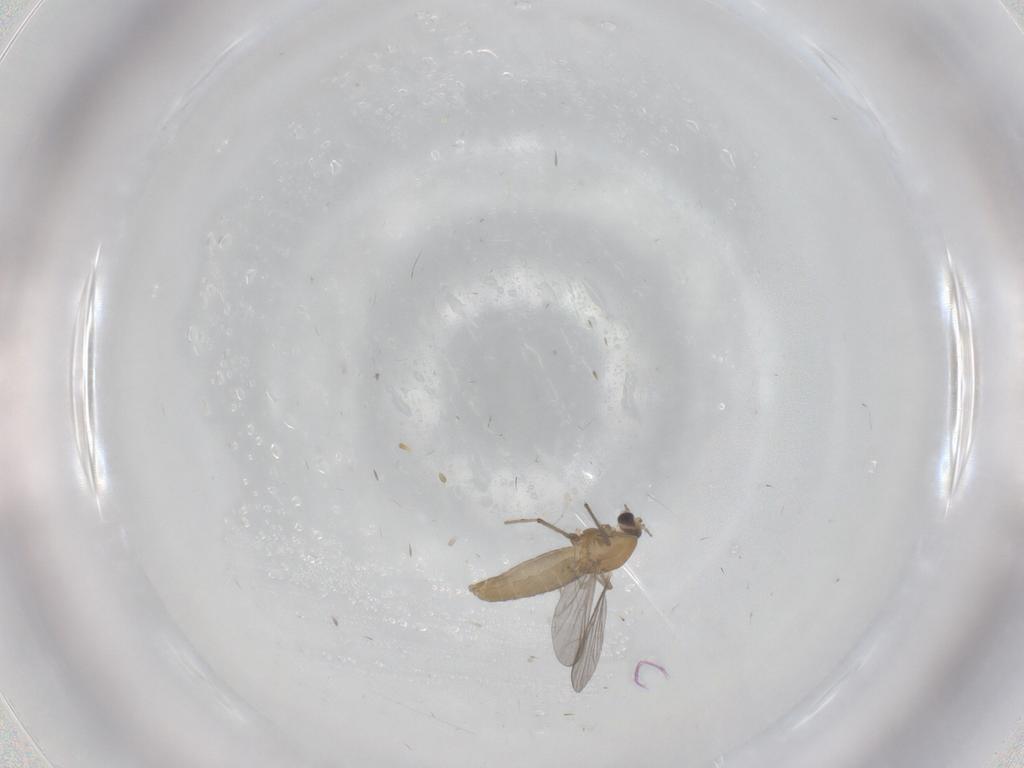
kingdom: Animalia
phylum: Arthropoda
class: Insecta
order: Diptera
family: Chironomidae
